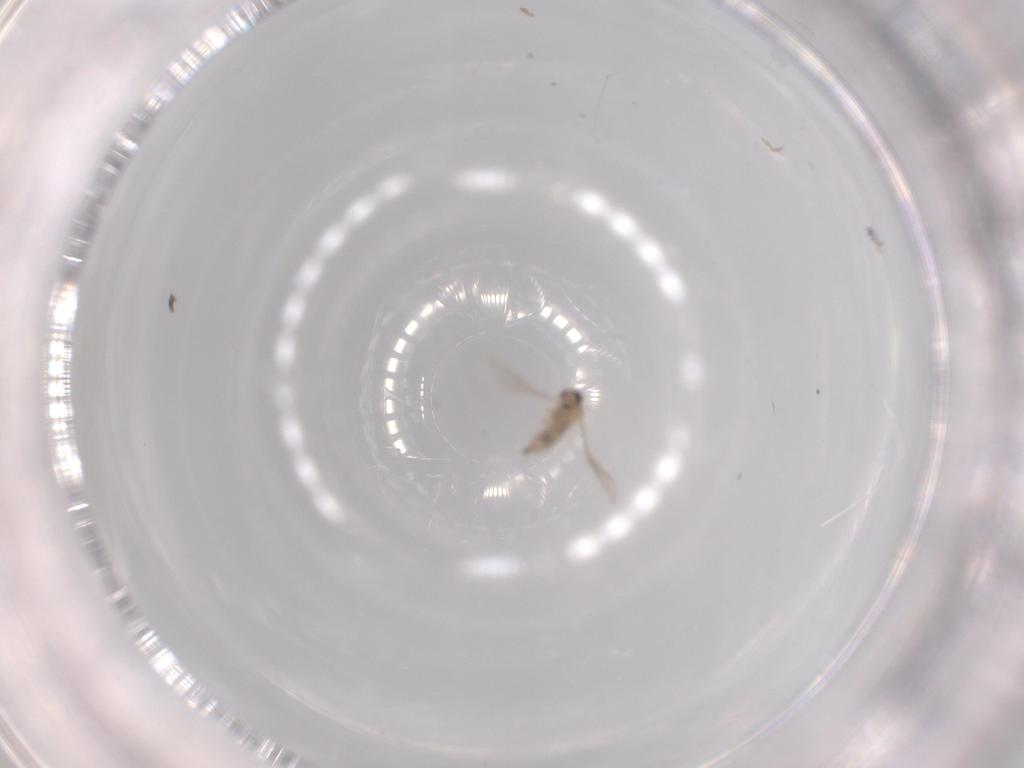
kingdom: Animalia
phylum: Arthropoda
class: Insecta
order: Diptera
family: Cecidomyiidae
